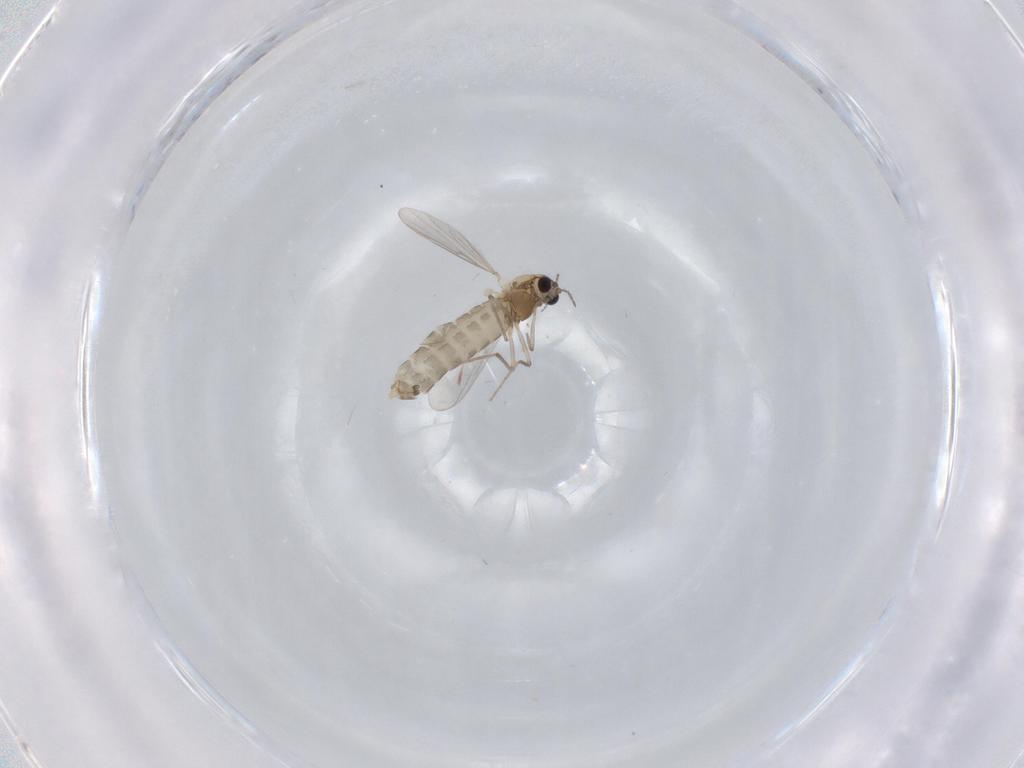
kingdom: Animalia
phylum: Arthropoda
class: Insecta
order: Diptera
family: Chironomidae
